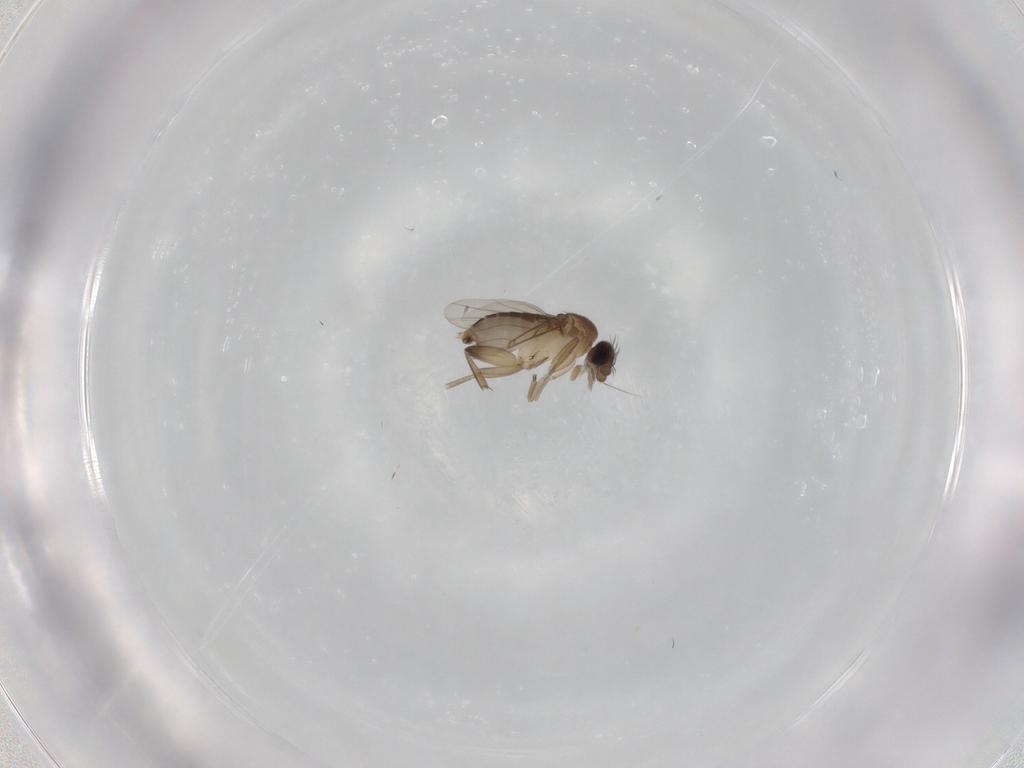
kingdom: Animalia
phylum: Arthropoda
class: Insecta
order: Diptera
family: Phoridae
